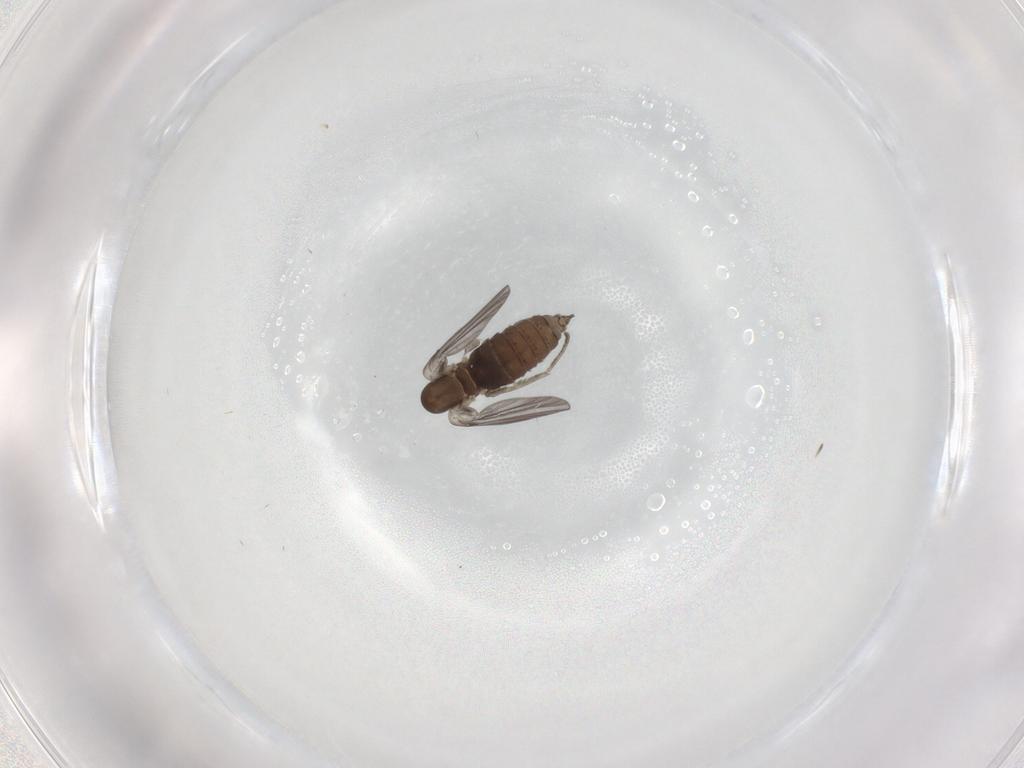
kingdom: Animalia
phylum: Arthropoda
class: Insecta
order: Diptera
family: Chironomidae
